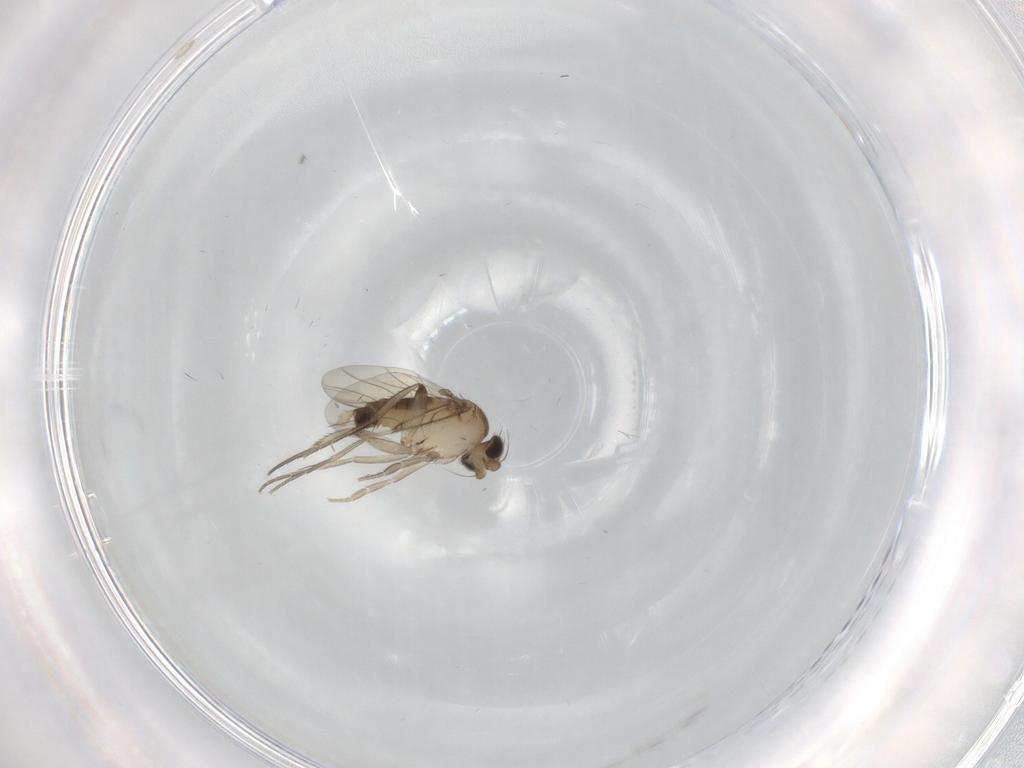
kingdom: Animalia
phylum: Arthropoda
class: Insecta
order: Diptera
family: Phoridae
